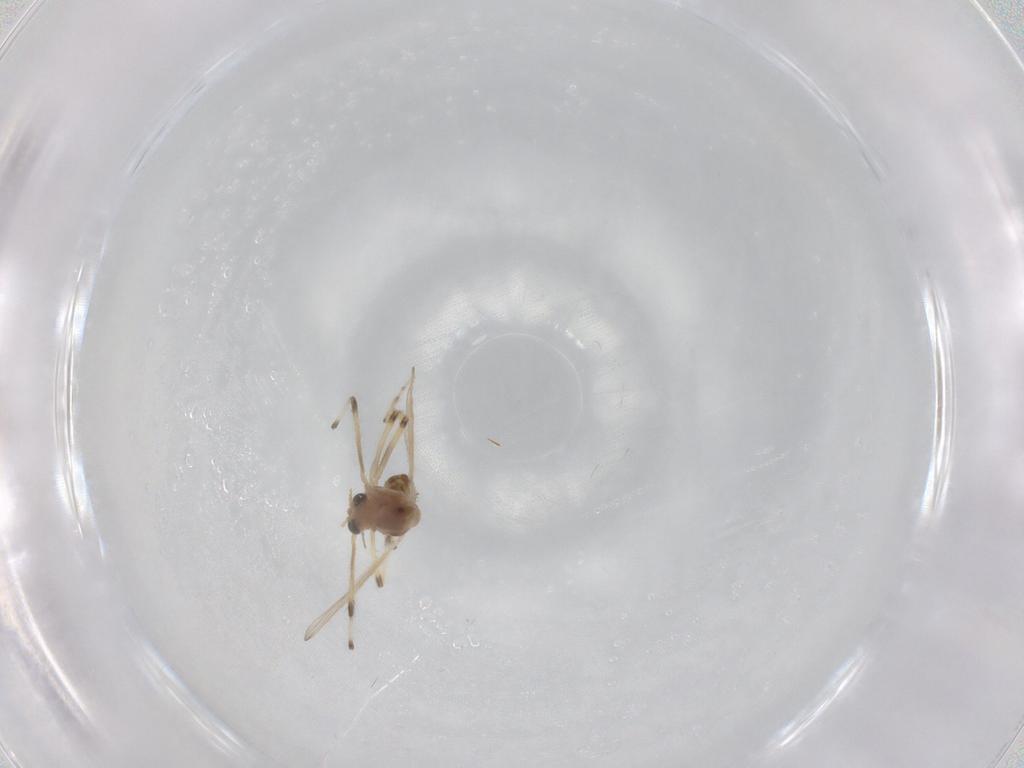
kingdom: Animalia
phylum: Arthropoda
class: Insecta
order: Diptera
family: Chironomidae
